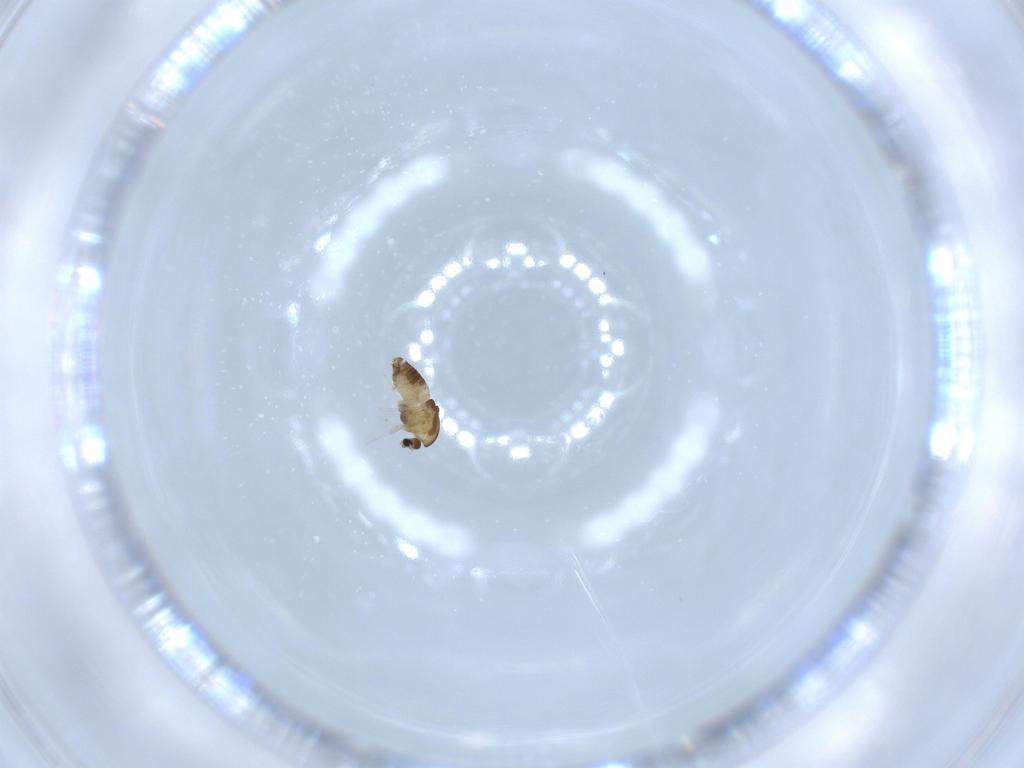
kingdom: Animalia
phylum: Arthropoda
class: Insecta
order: Diptera
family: Chironomidae
